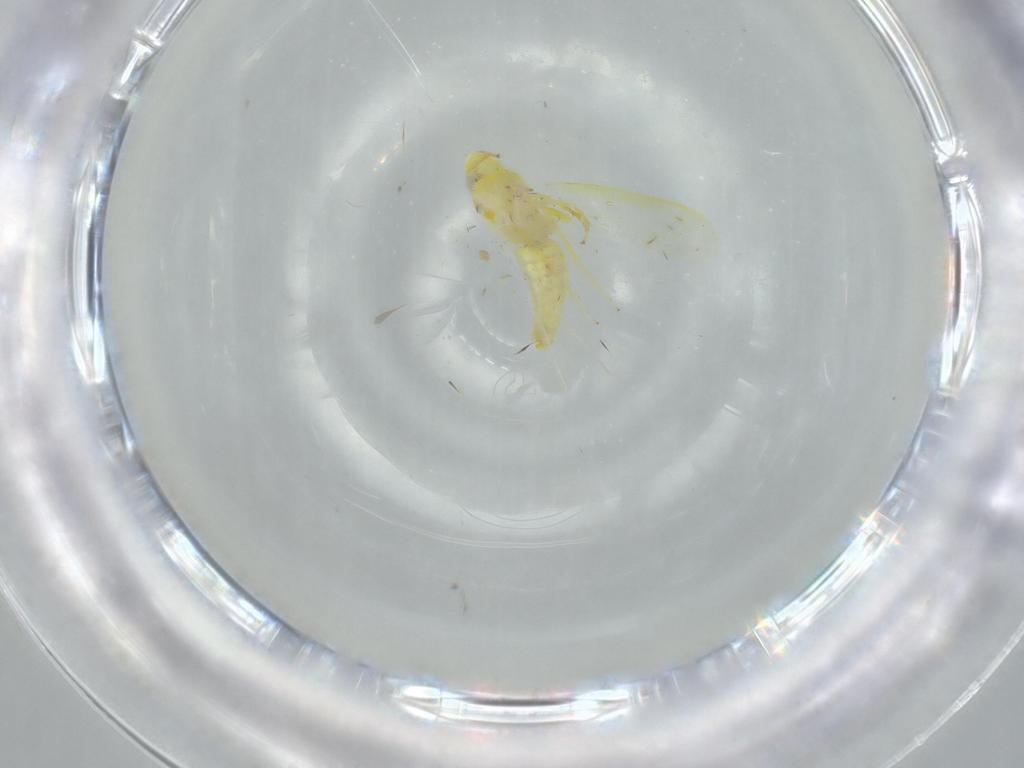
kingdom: Animalia
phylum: Arthropoda
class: Insecta
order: Hemiptera
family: Cicadellidae
